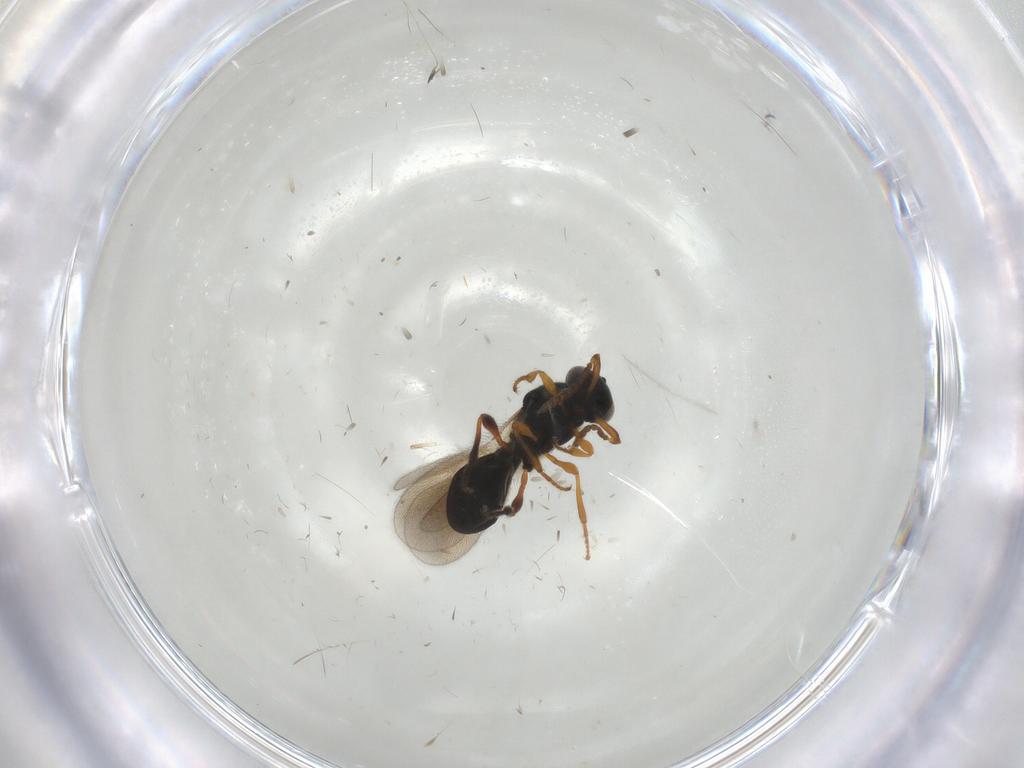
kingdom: Animalia
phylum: Arthropoda
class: Insecta
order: Hymenoptera
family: Platygastridae
